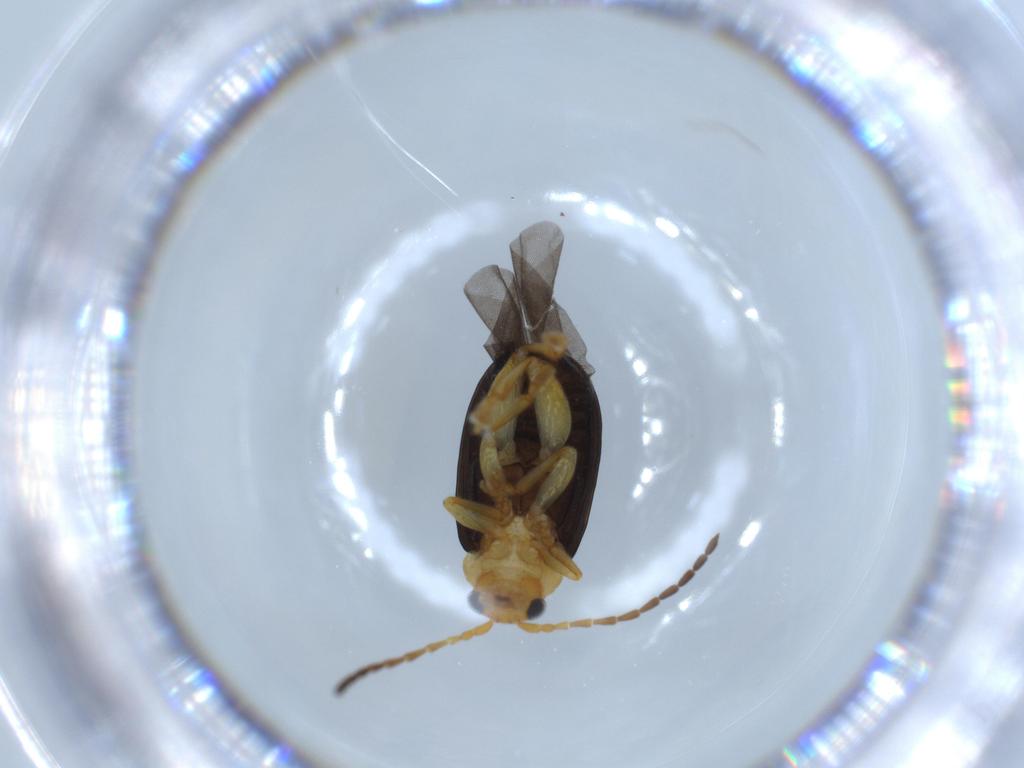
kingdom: Animalia
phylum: Arthropoda
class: Insecta
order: Coleoptera
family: Chrysomelidae
